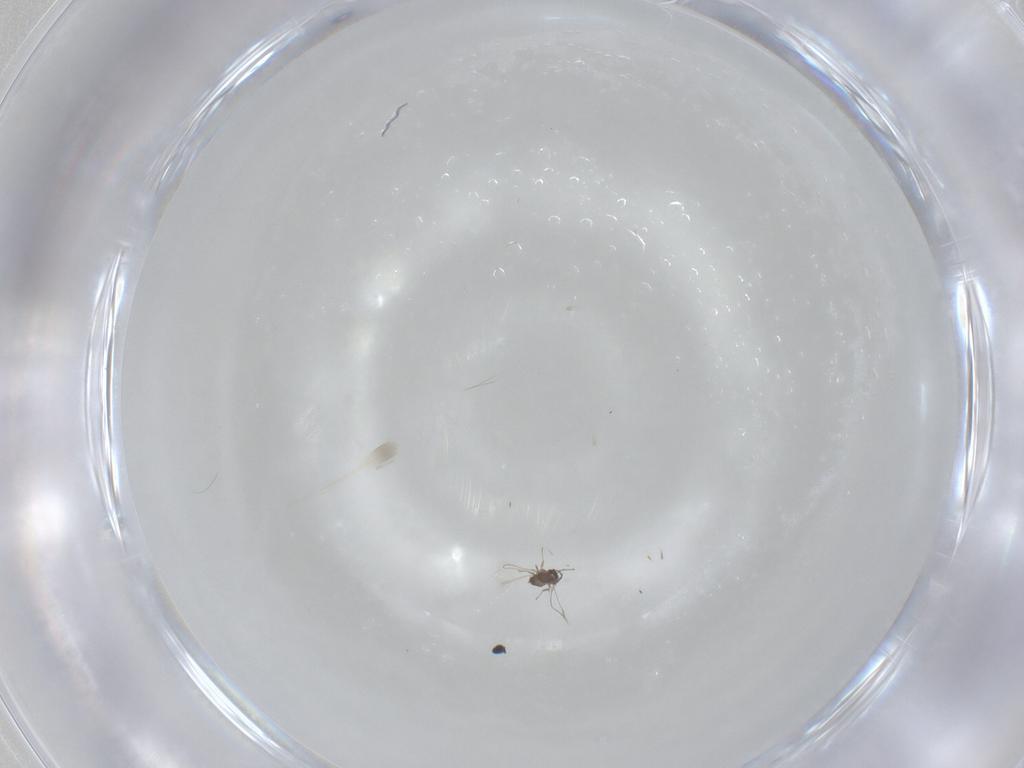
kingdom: Animalia
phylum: Arthropoda
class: Insecta
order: Hymenoptera
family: Mymaridae
